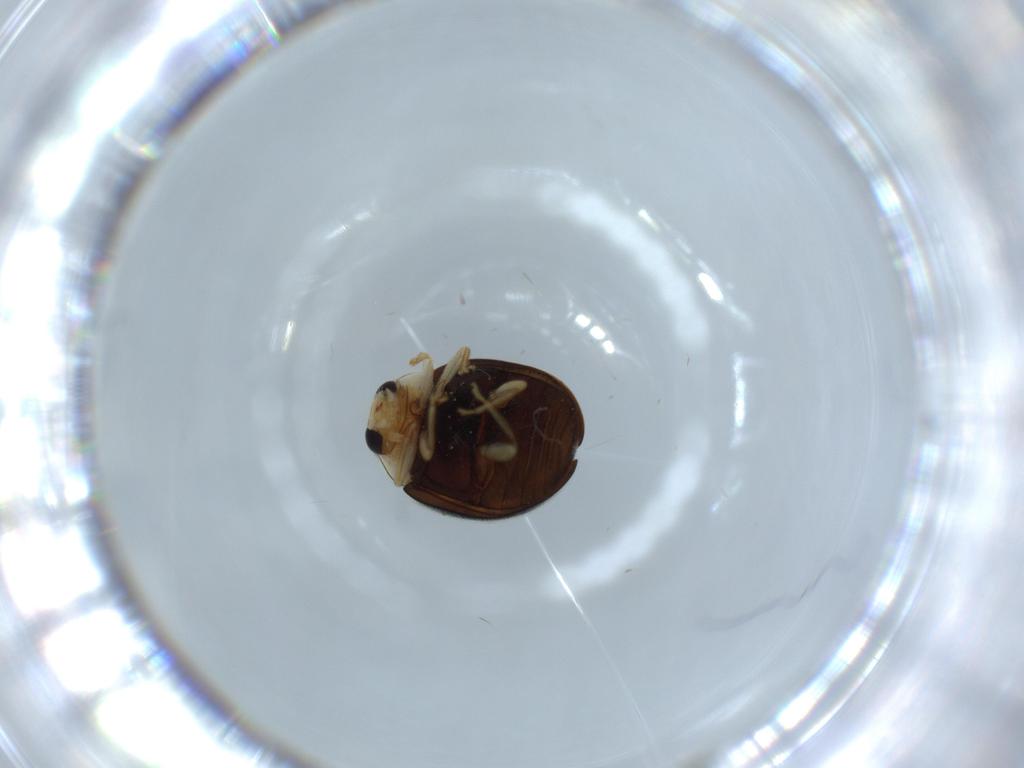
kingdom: Animalia
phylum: Arthropoda
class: Insecta
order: Coleoptera
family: Coccinellidae
